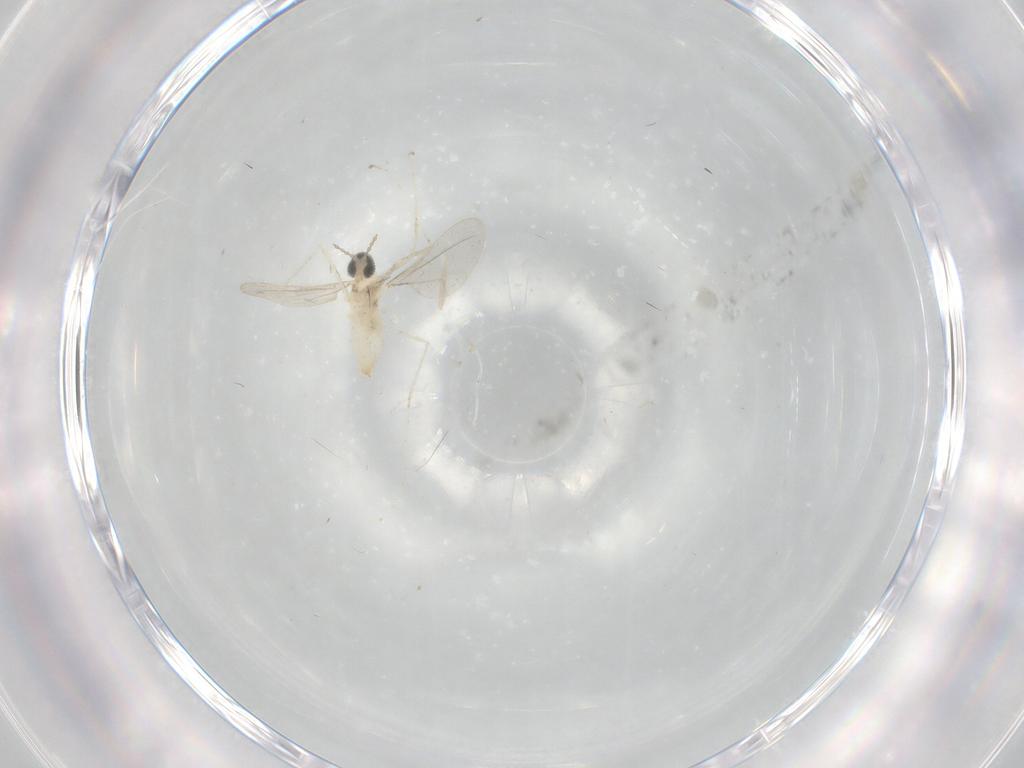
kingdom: Animalia
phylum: Arthropoda
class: Insecta
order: Diptera
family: Cecidomyiidae
